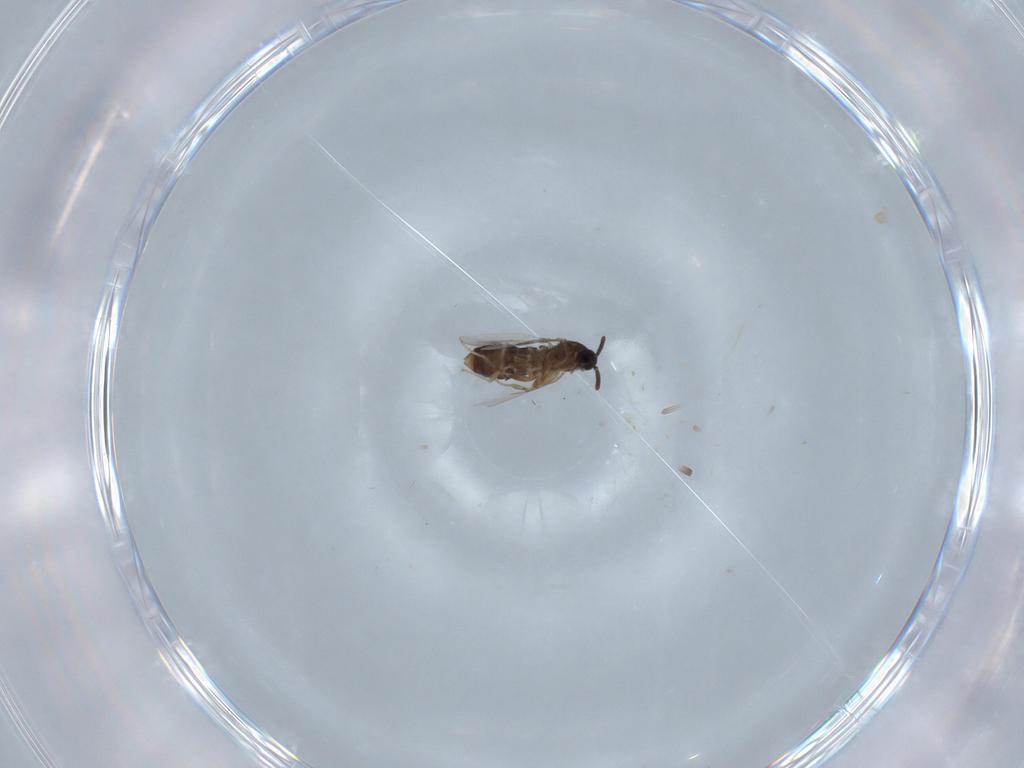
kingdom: Animalia
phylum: Arthropoda
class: Insecta
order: Diptera
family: Scatopsidae
